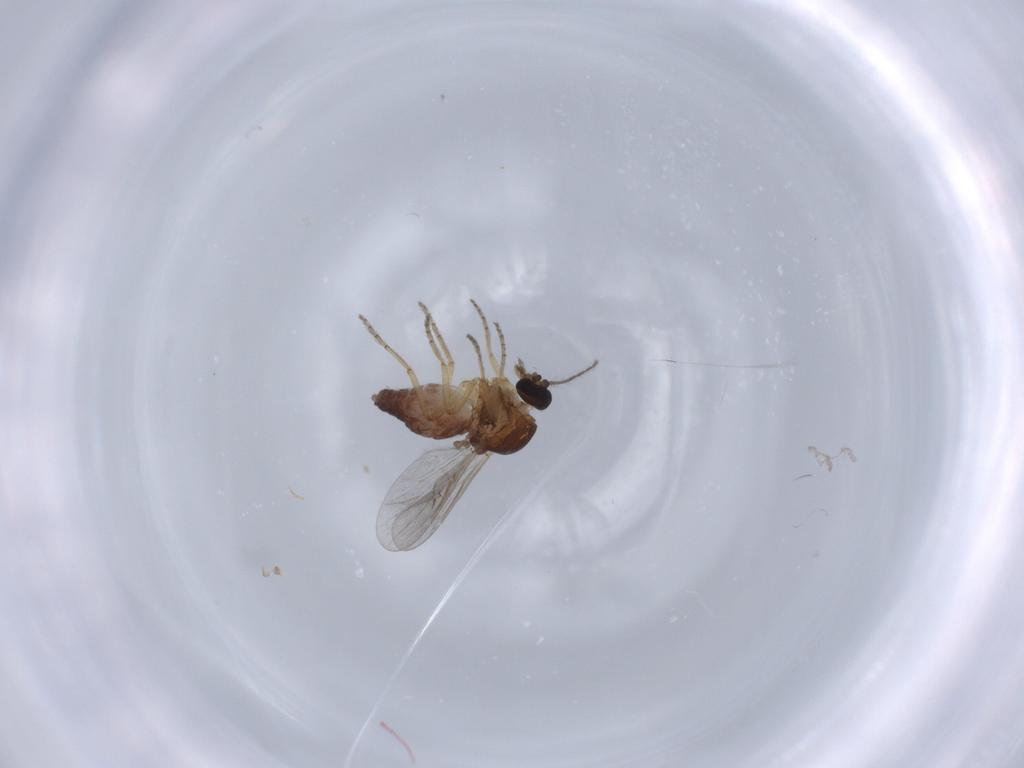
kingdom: Animalia
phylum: Arthropoda
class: Insecta
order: Diptera
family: Ceratopogonidae
